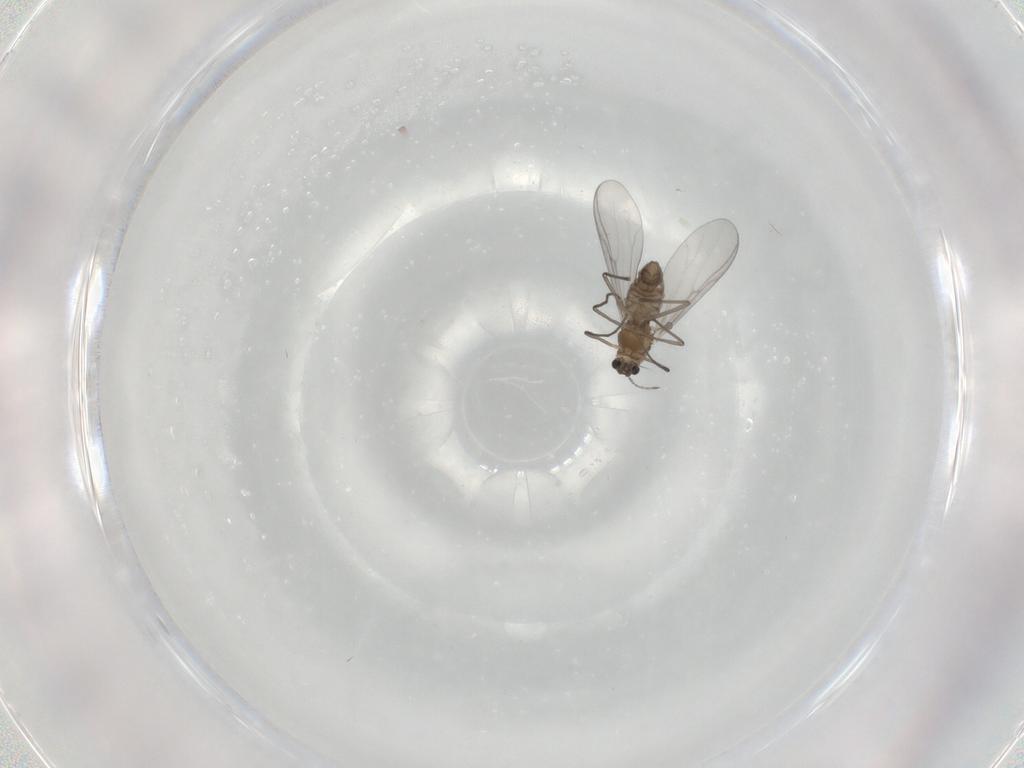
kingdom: Animalia
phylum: Arthropoda
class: Insecta
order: Diptera
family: Chironomidae
